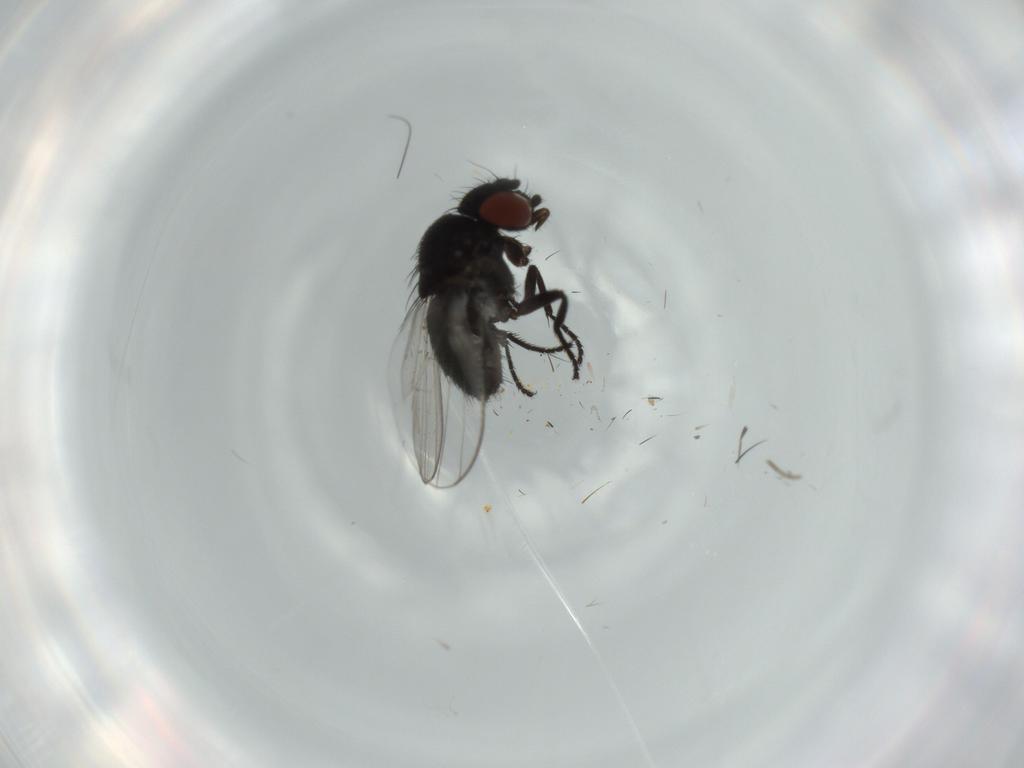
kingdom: Animalia
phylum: Arthropoda
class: Insecta
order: Diptera
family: Milichiidae
